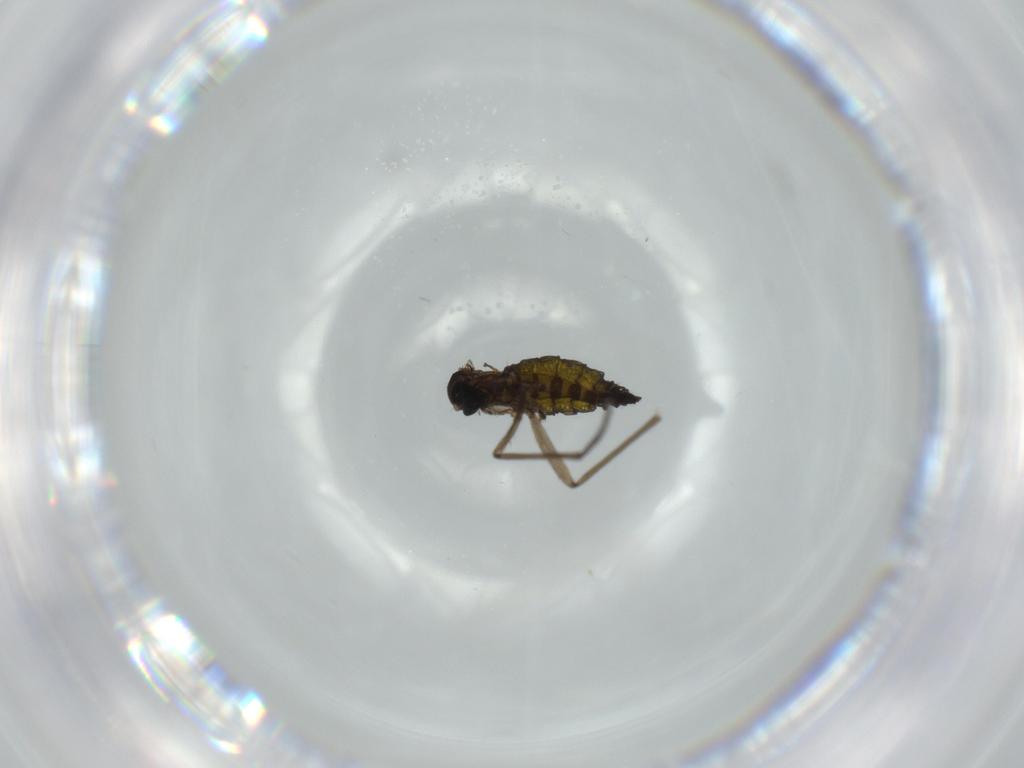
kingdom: Animalia
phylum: Arthropoda
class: Insecta
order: Diptera
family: Sciaridae
